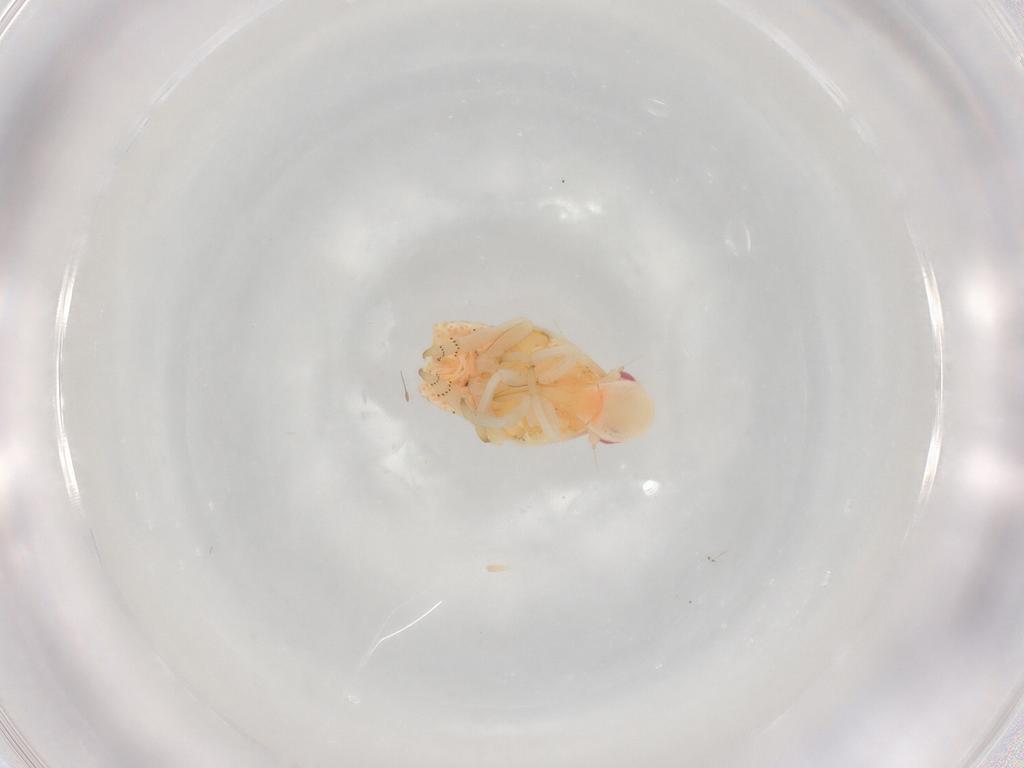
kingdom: Animalia
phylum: Arthropoda
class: Insecta
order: Hemiptera
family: Flatidae
